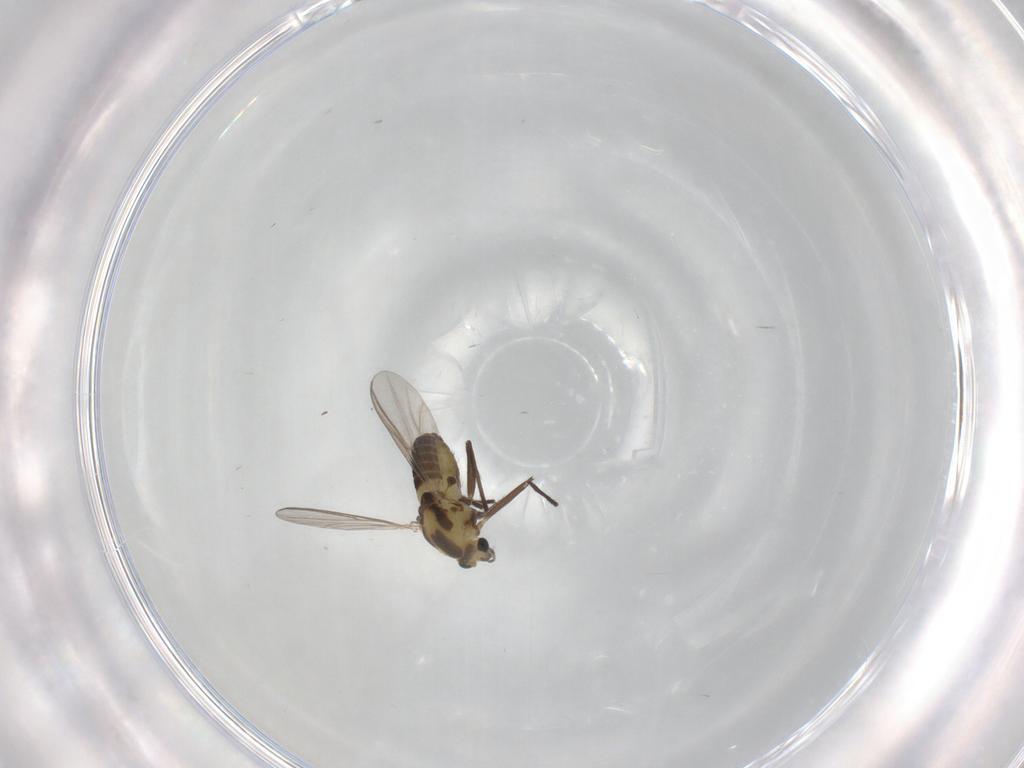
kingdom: Animalia
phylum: Arthropoda
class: Insecta
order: Diptera
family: Chironomidae
